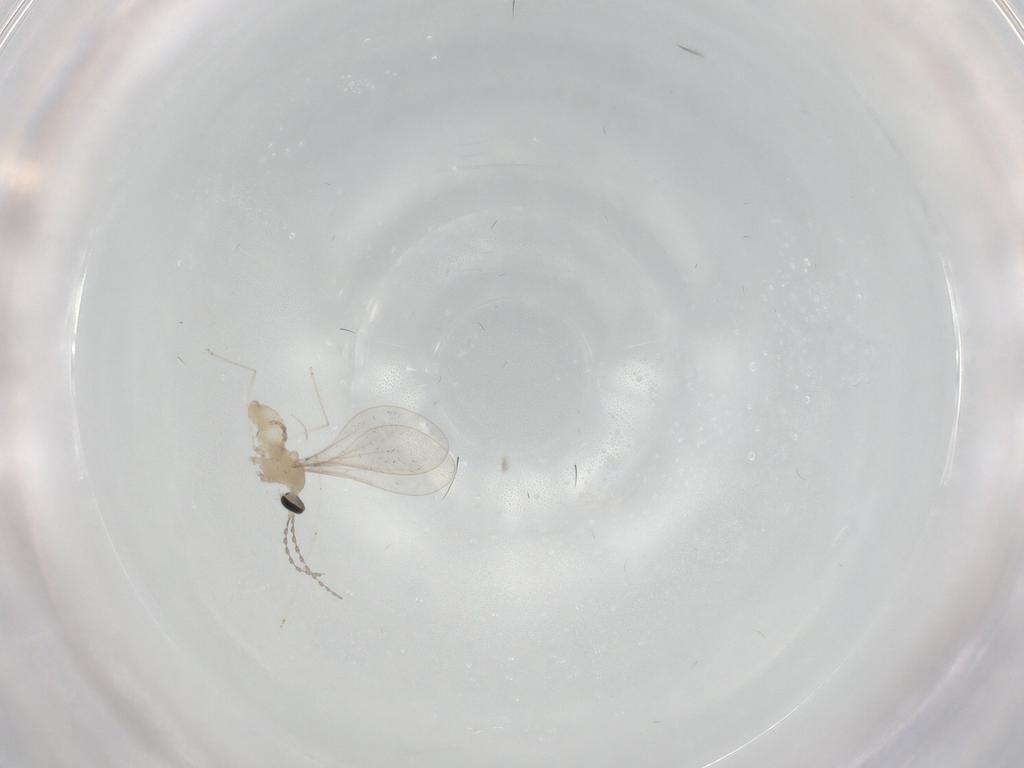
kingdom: Animalia
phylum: Arthropoda
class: Insecta
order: Diptera
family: Cecidomyiidae
